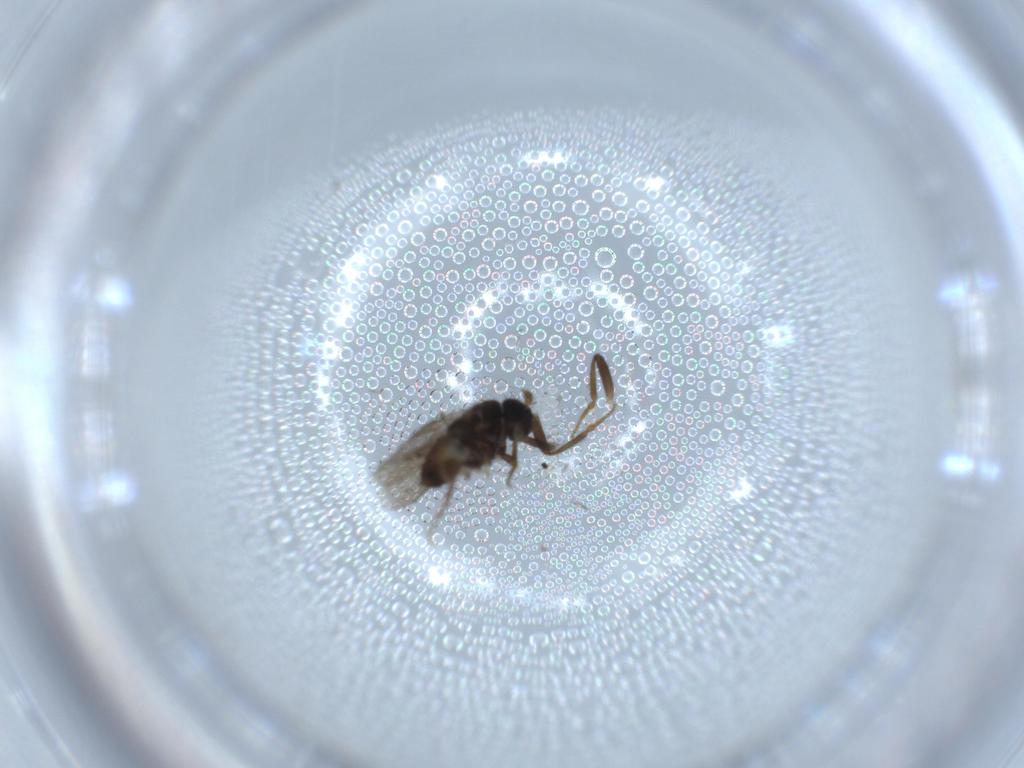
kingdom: Animalia
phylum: Arthropoda
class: Insecta
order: Diptera
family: Sphaeroceridae
